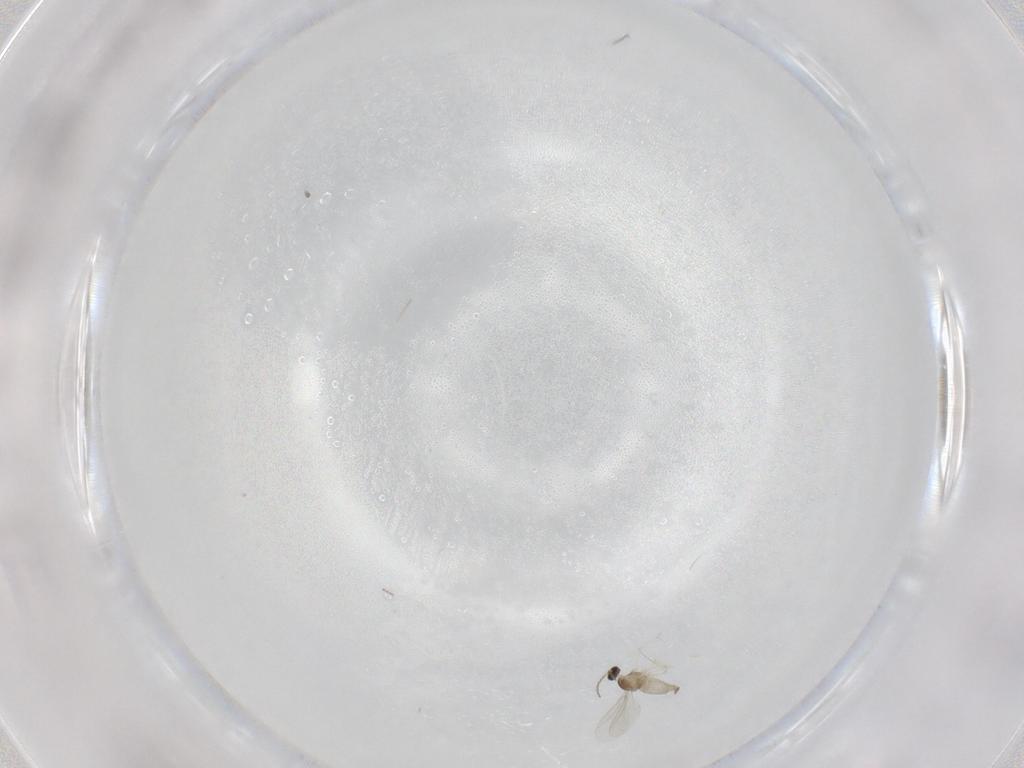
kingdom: Animalia
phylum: Arthropoda
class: Insecta
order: Diptera
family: Cecidomyiidae
